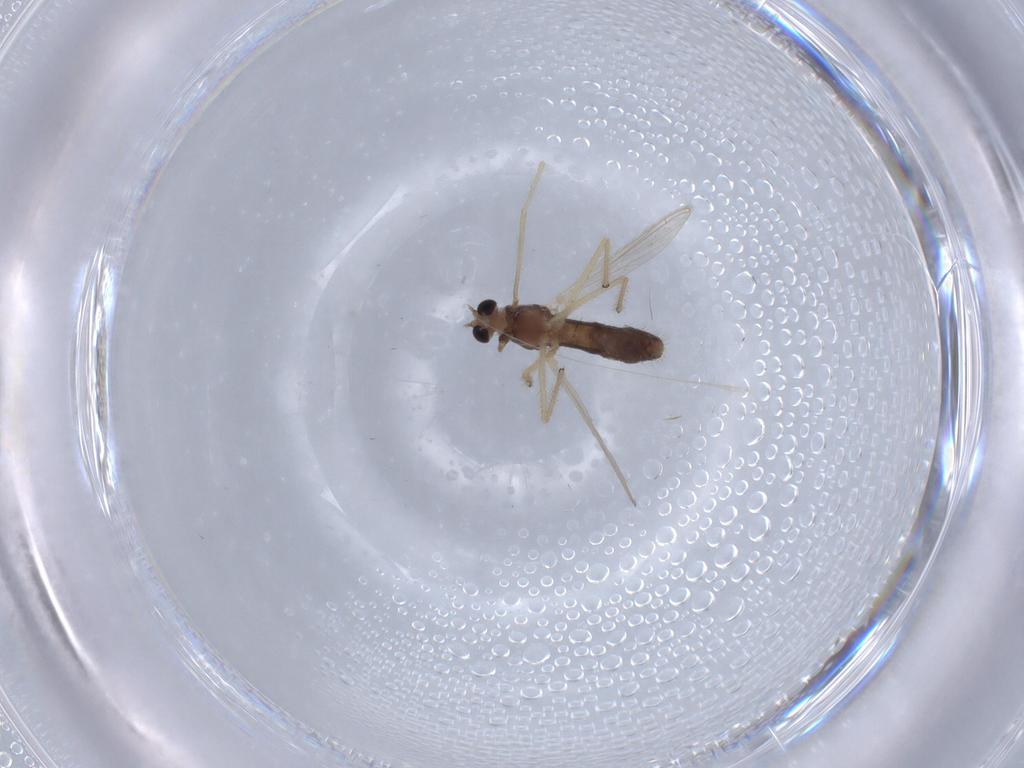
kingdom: Animalia
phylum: Arthropoda
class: Insecta
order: Diptera
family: Chironomidae
